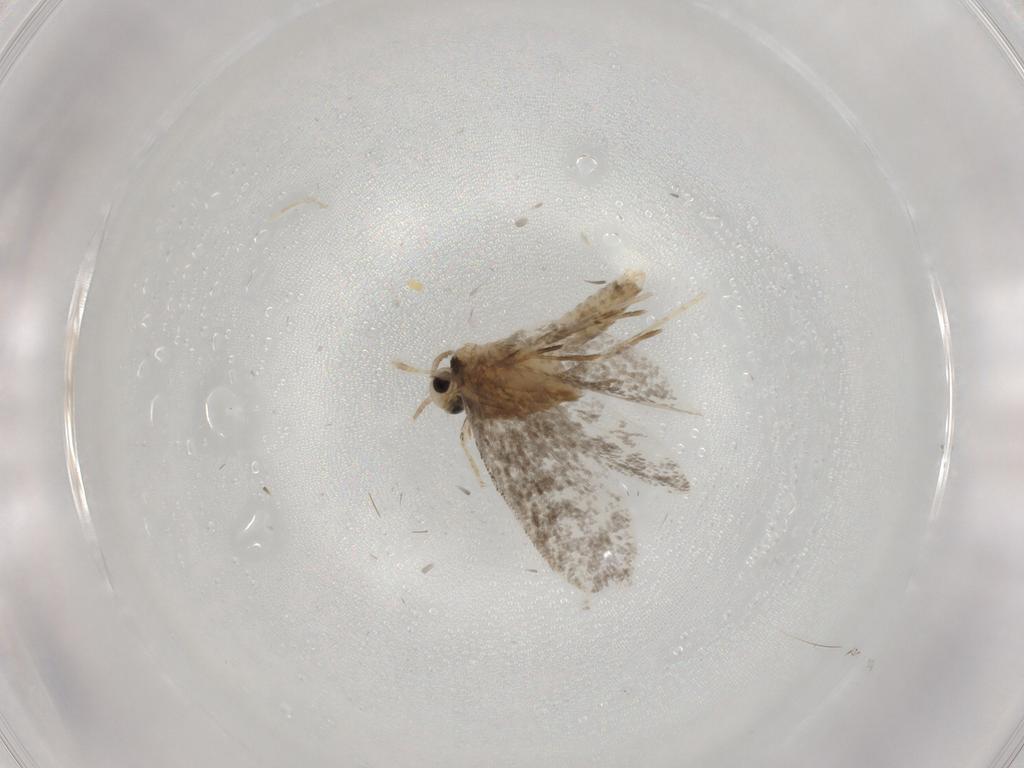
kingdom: Animalia
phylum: Arthropoda
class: Insecta
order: Lepidoptera
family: Psychidae
